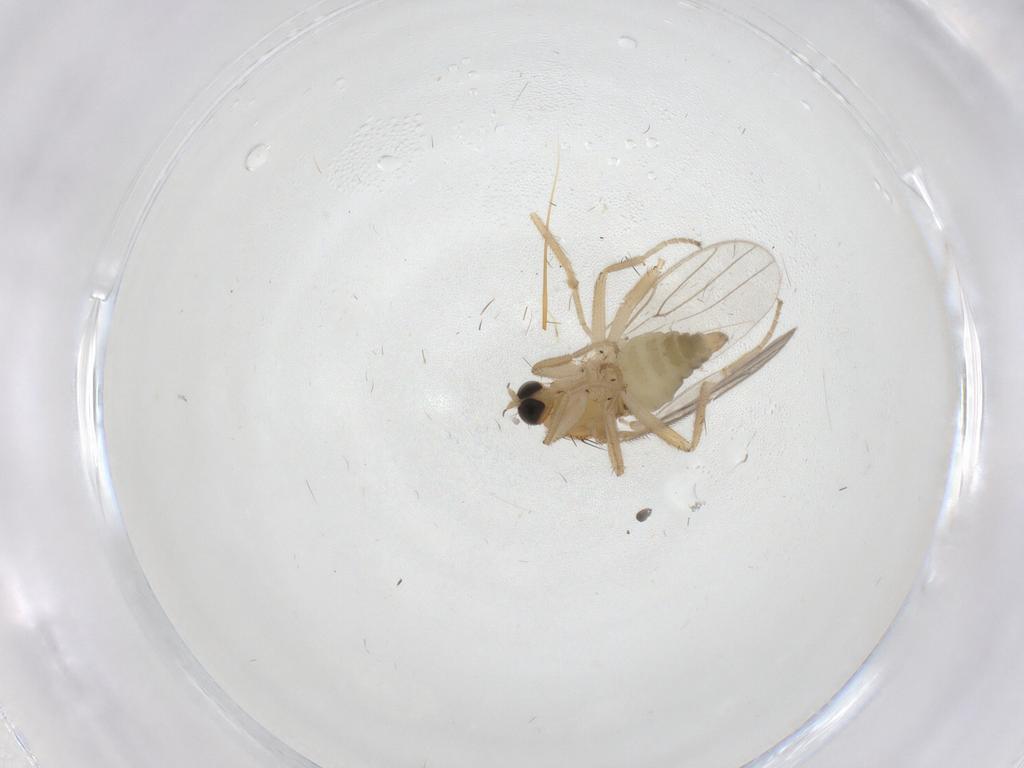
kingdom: Animalia
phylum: Arthropoda
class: Insecta
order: Diptera
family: Hybotidae
